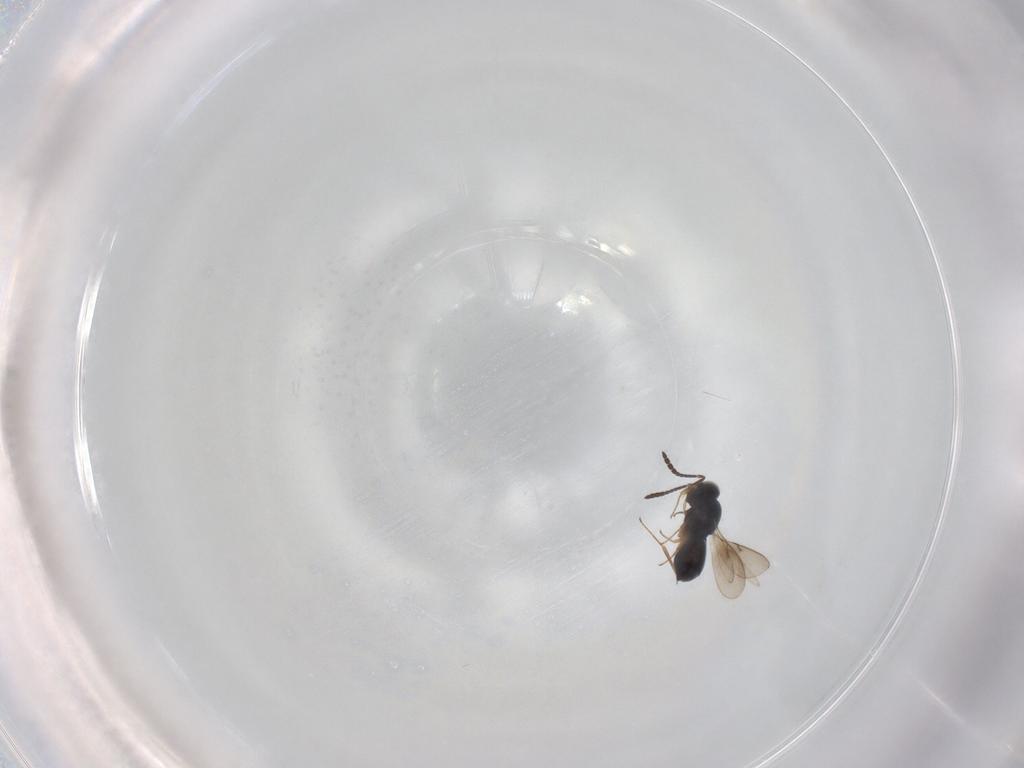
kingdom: Animalia
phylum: Arthropoda
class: Insecta
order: Hymenoptera
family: Scelionidae
